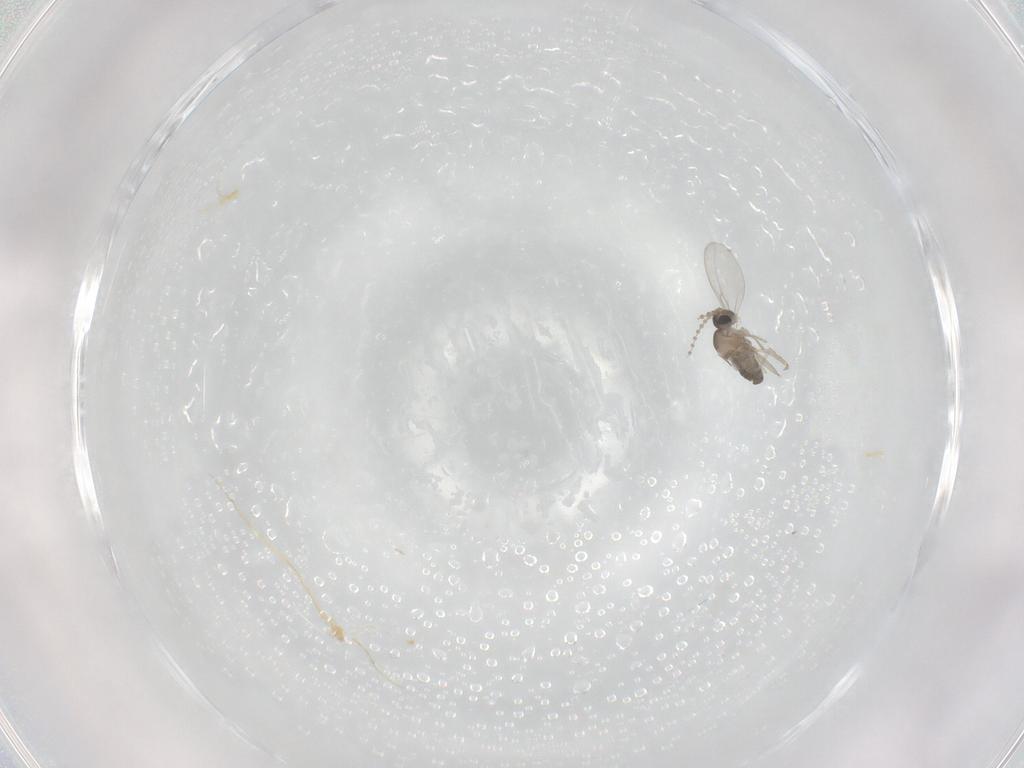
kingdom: Animalia
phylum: Arthropoda
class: Insecta
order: Diptera
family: Cecidomyiidae
